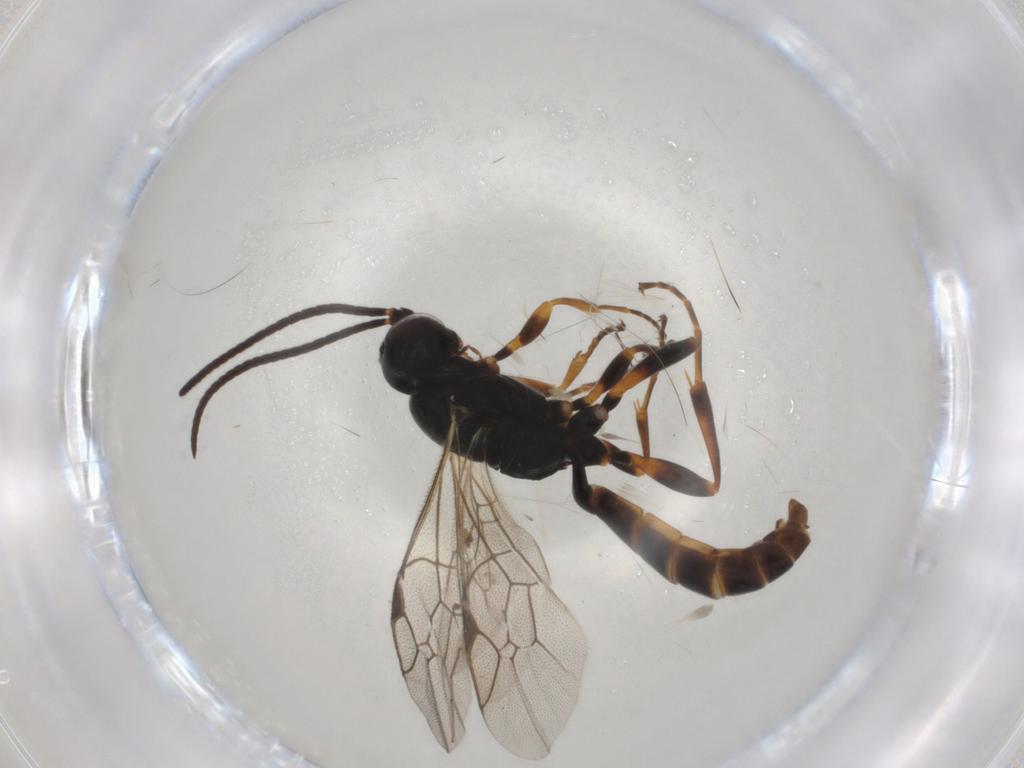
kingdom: Animalia
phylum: Arthropoda
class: Insecta
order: Hymenoptera
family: Ichneumonidae
